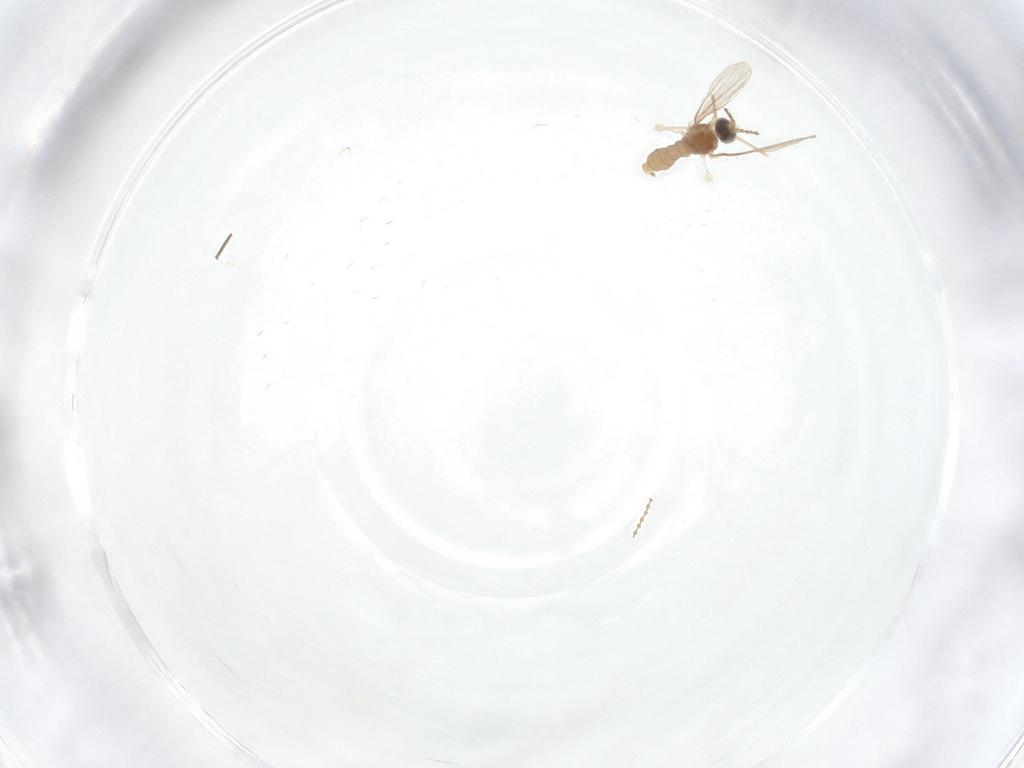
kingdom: Animalia
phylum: Arthropoda
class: Insecta
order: Diptera
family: Cecidomyiidae
